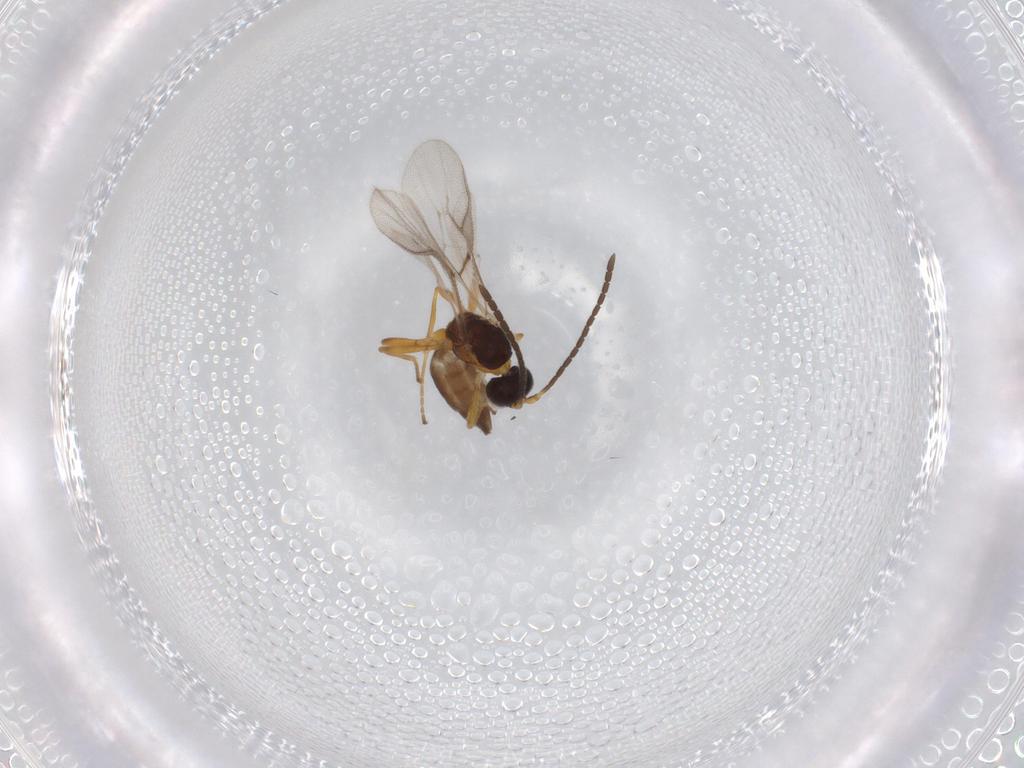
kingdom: Animalia
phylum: Arthropoda
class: Insecta
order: Hymenoptera
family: Braconidae
